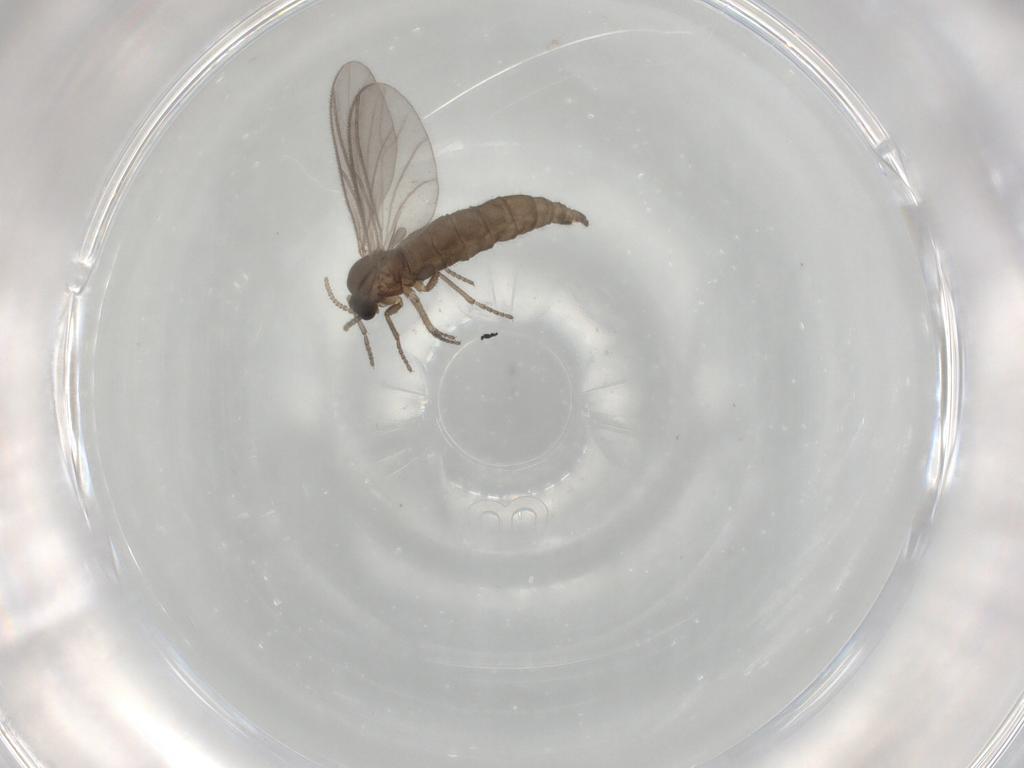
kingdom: Animalia
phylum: Arthropoda
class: Insecta
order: Diptera
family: Sciaridae
